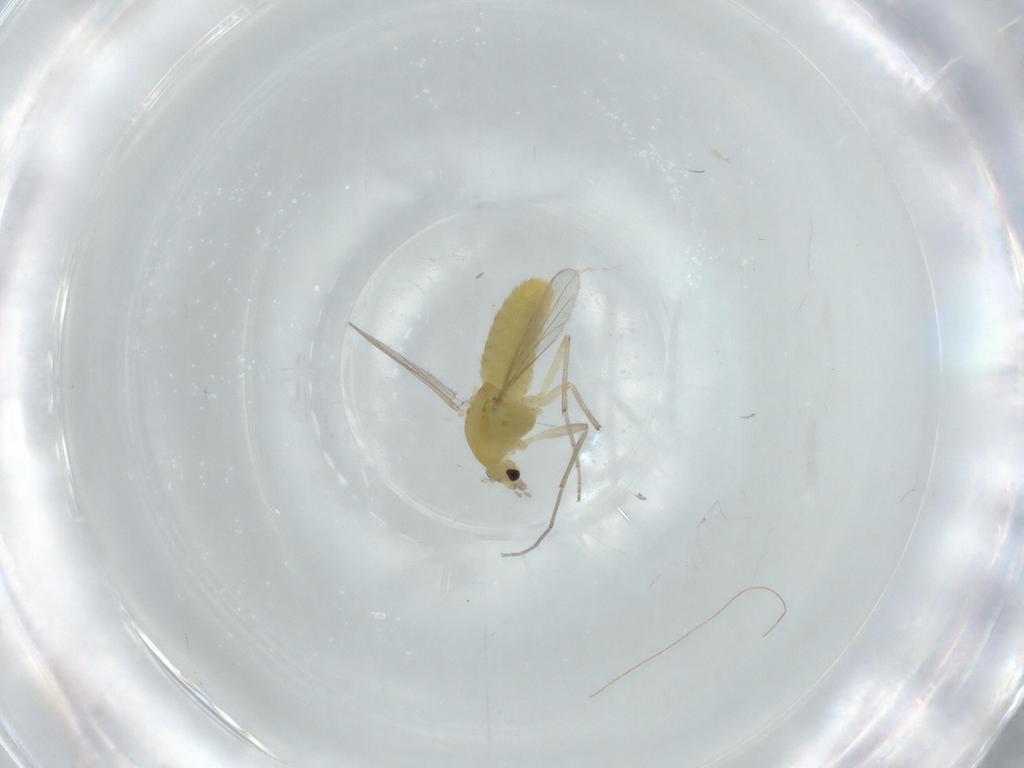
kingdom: Animalia
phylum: Arthropoda
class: Insecta
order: Diptera
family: Chironomidae
